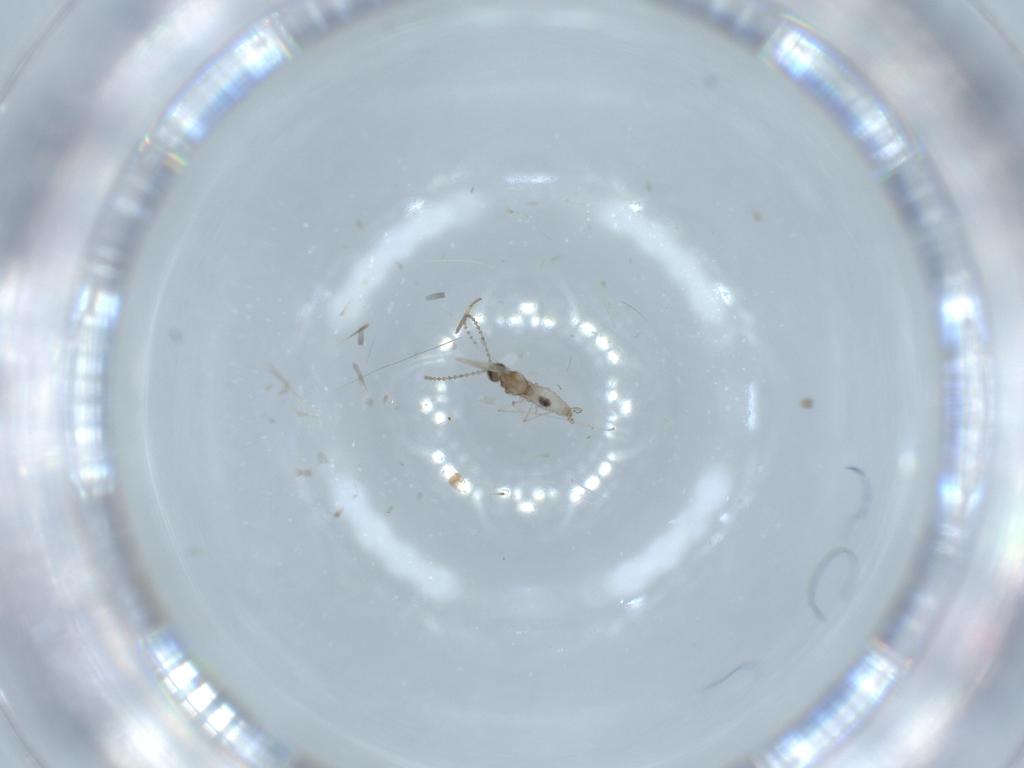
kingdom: Animalia
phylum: Arthropoda
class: Insecta
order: Diptera
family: Cecidomyiidae
